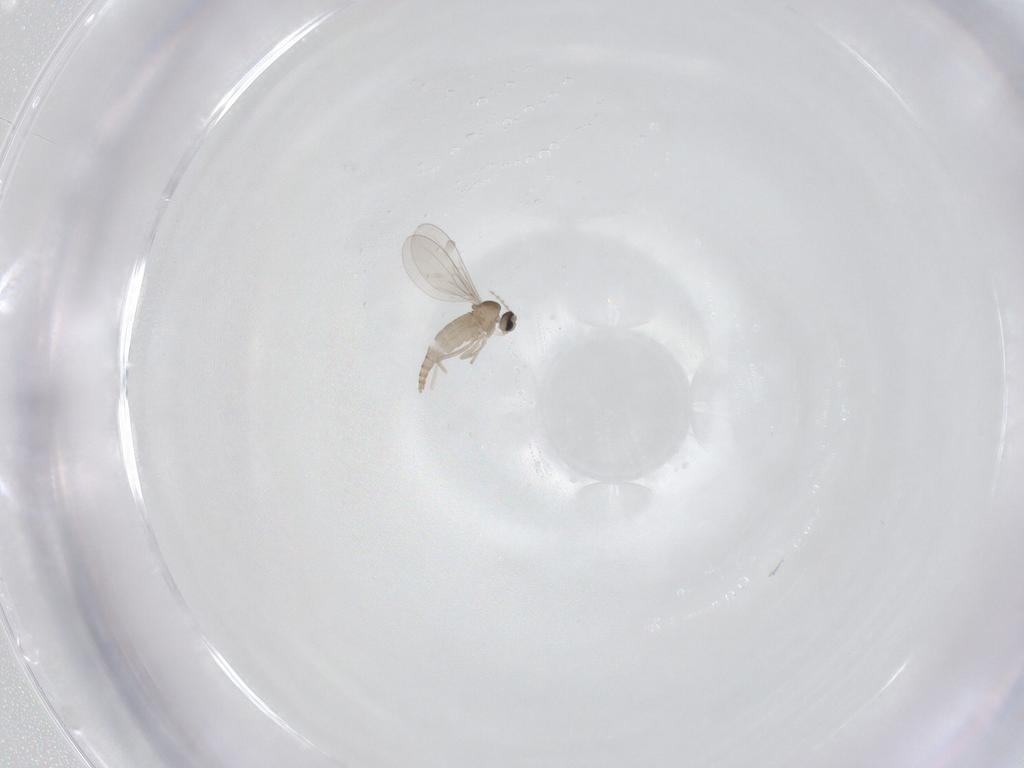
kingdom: Animalia
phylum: Arthropoda
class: Insecta
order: Diptera
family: Cecidomyiidae
